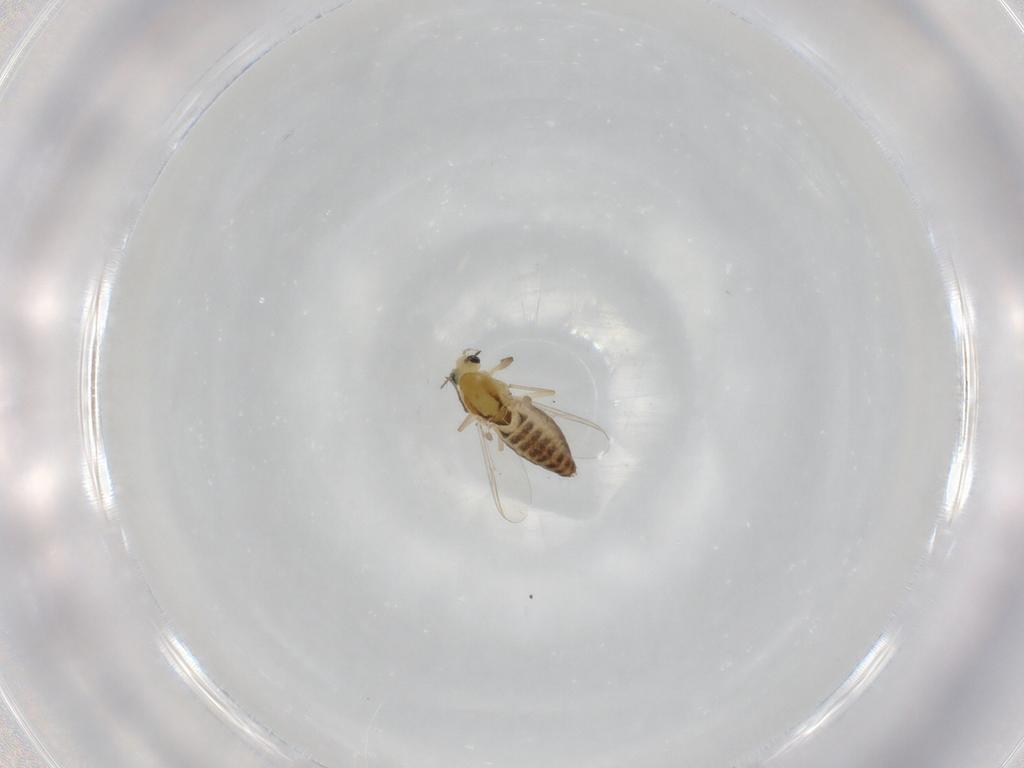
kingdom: Animalia
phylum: Arthropoda
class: Insecta
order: Diptera
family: Chironomidae
